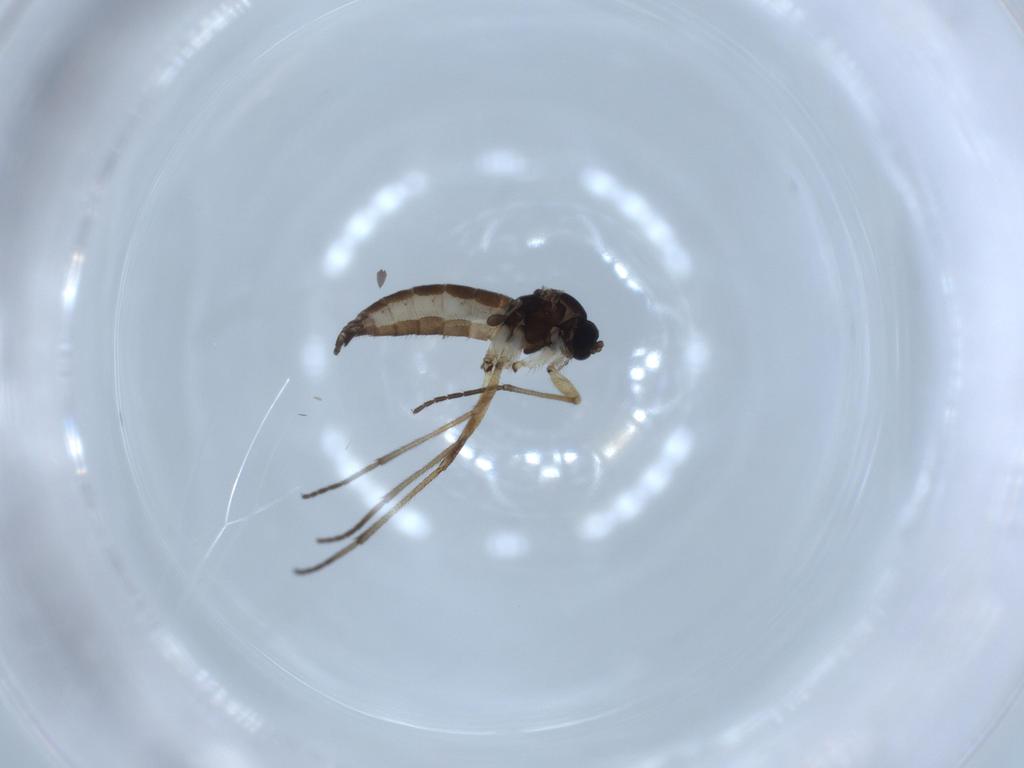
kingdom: Animalia
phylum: Arthropoda
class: Insecta
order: Diptera
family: Sciaridae
